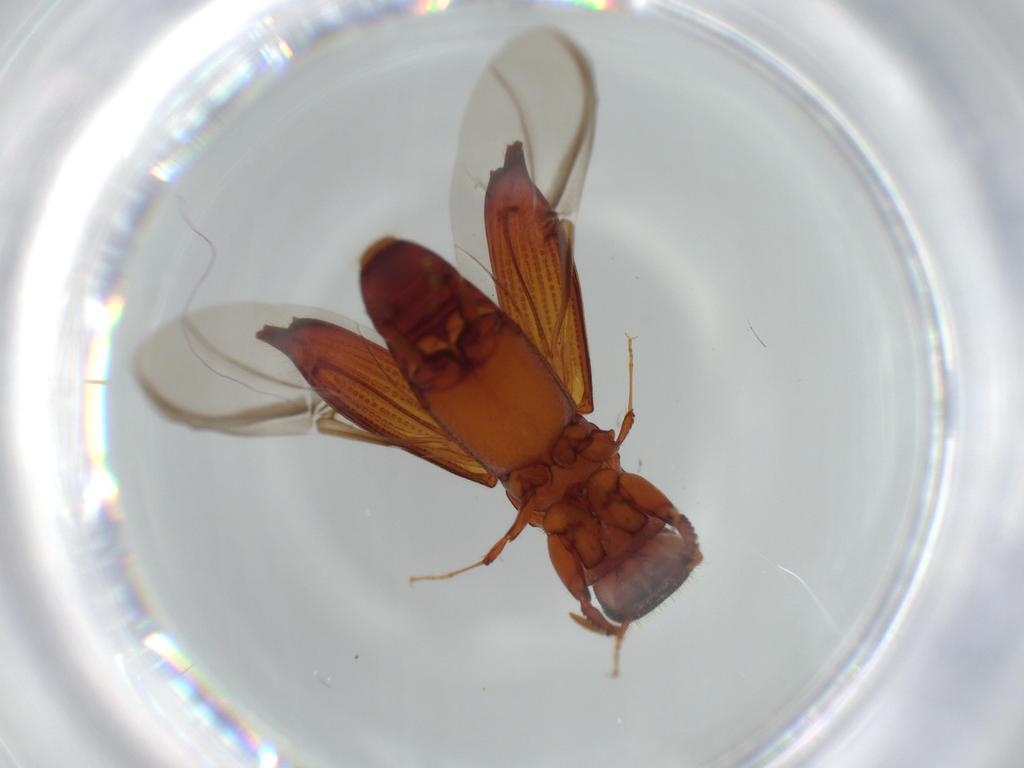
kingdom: Animalia
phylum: Arthropoda
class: Insecta
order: Coleoptera
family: Curculionidae
